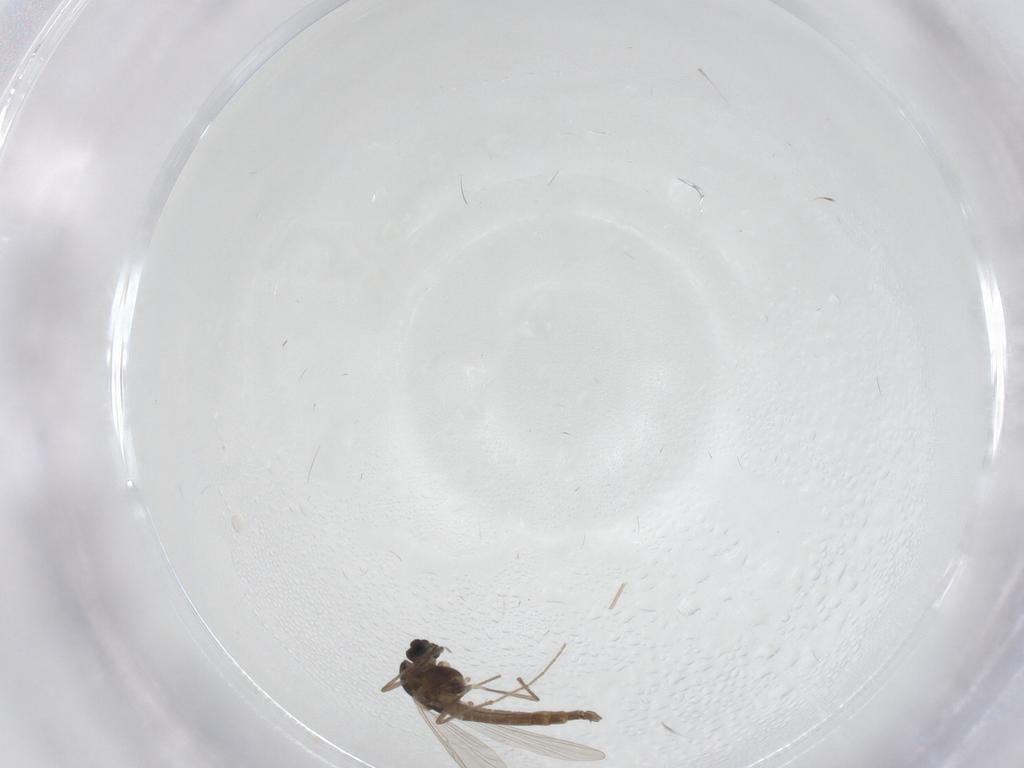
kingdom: Animalia
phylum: Arthropoda
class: Insecta
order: Diptera
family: Chironomidae
